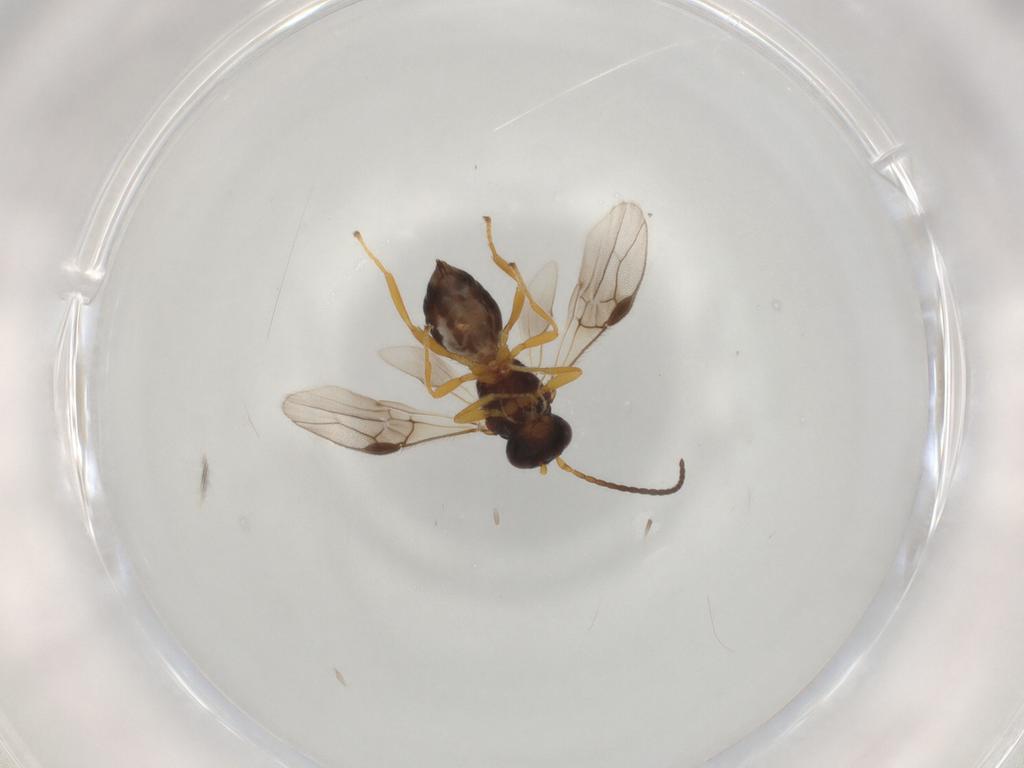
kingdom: Animalia
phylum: Arthropoda
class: Insecta
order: Hymenoptera
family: Braconidae
